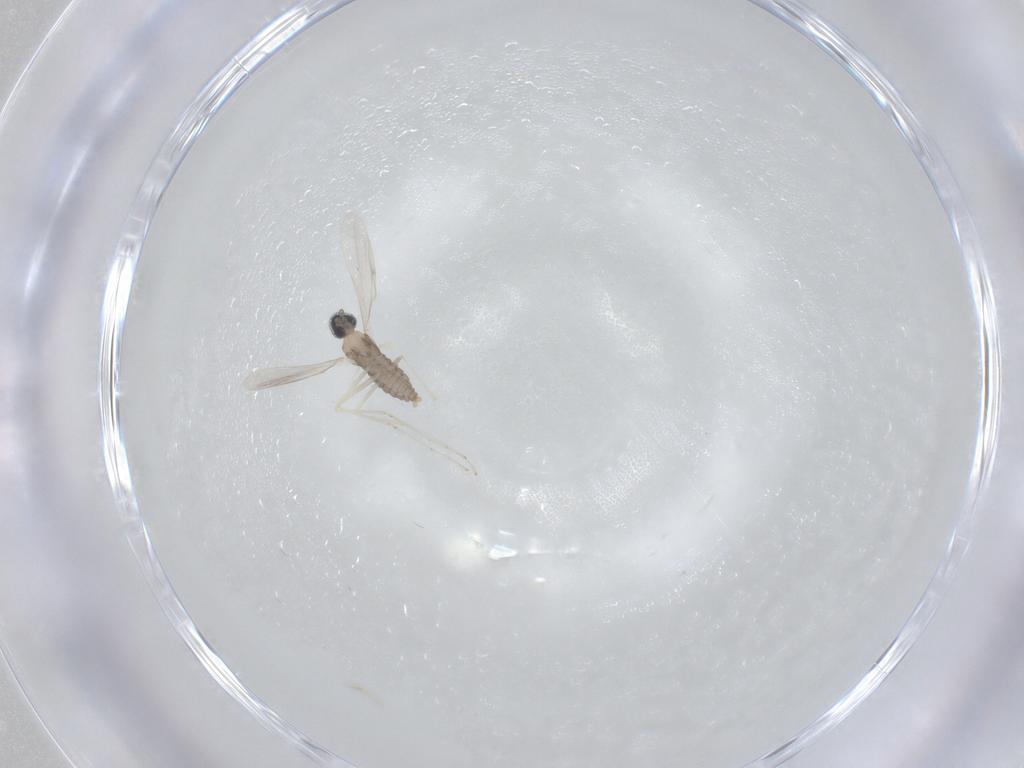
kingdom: Animalia
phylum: Arthropoda
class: Insecta
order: Diptera
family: Cecidomyiidae
